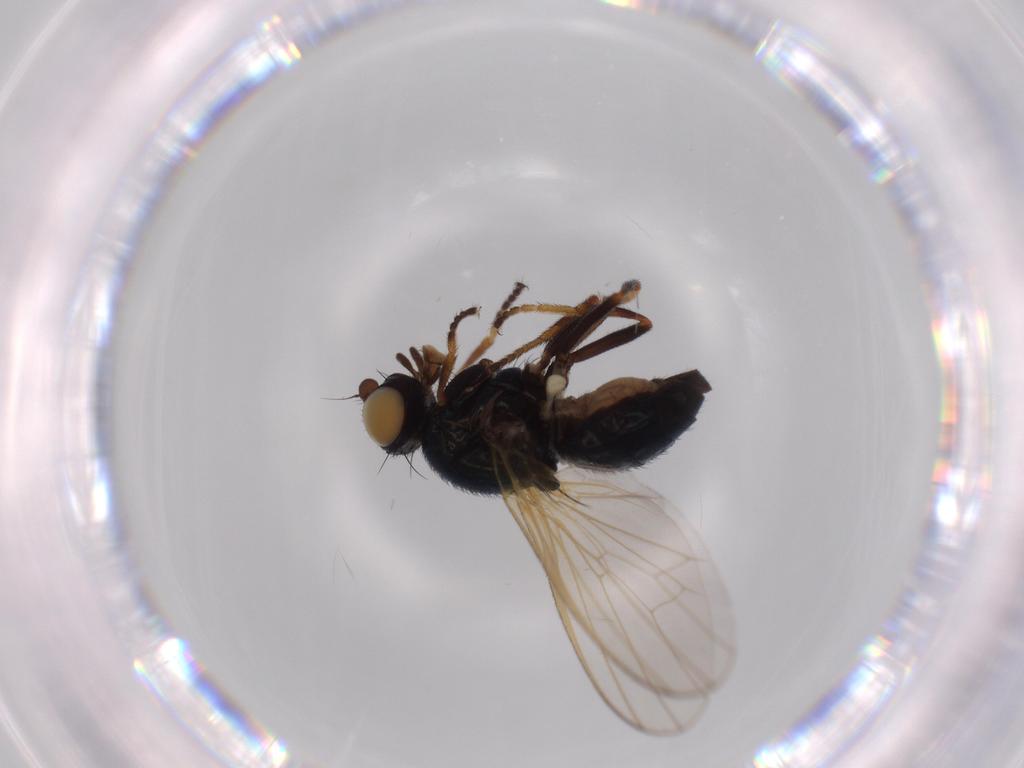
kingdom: Animalia
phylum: Arthropoda
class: Insecta
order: Diptera
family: Piophilidae
